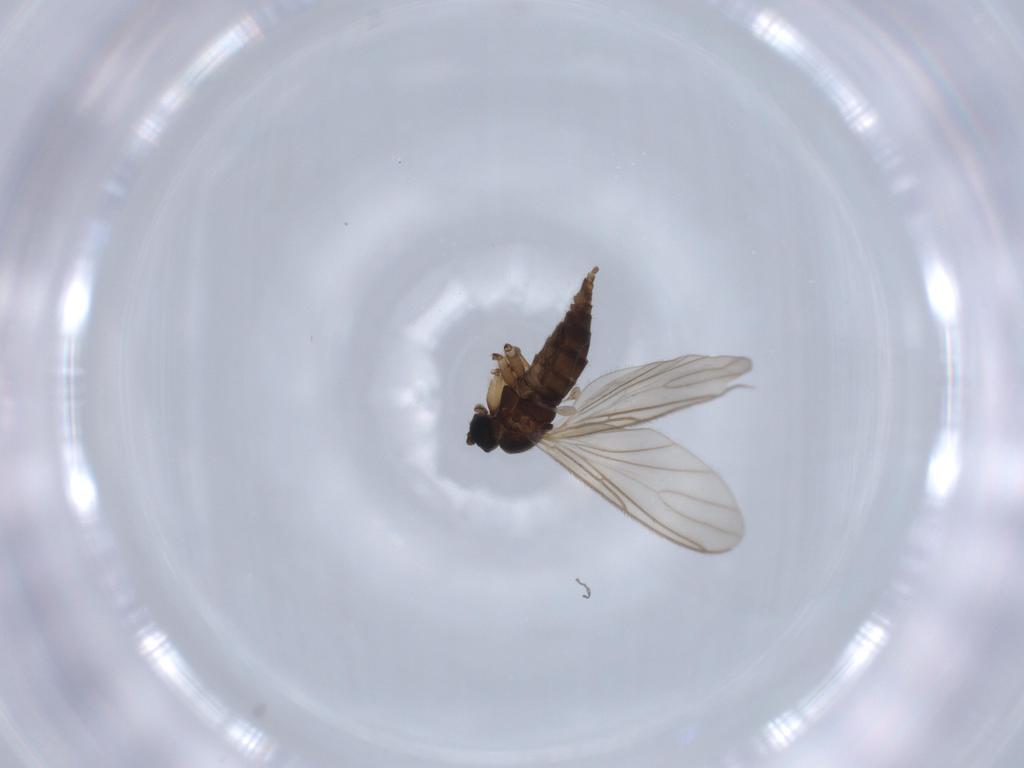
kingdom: Animalia
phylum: Arthropoda
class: Insecta
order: Diptera
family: Sciaridae
